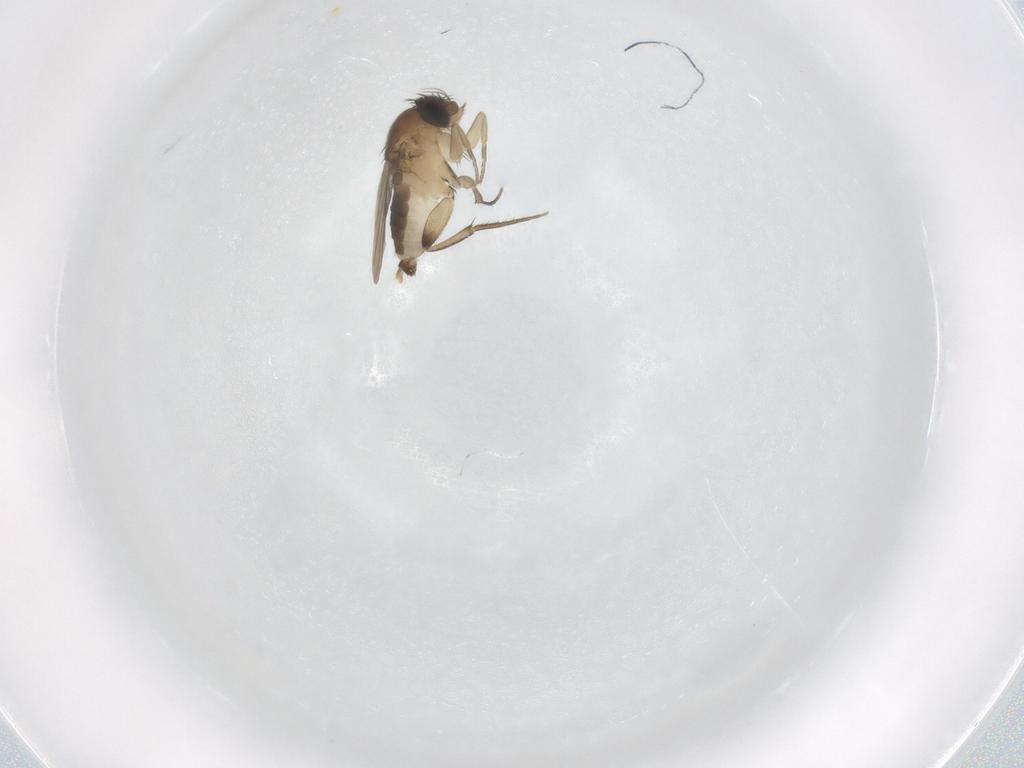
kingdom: Animalia
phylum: Arthropoda
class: Insecta
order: Diptera
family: Phoridae
